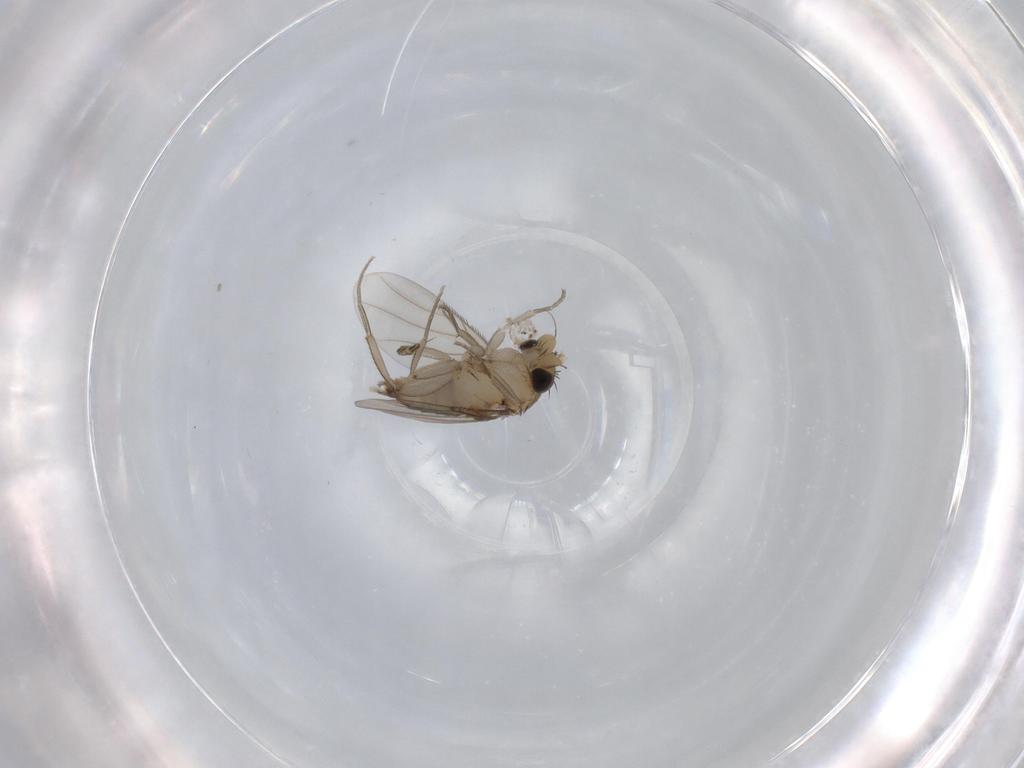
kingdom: Animalia
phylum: Arthropoda
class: Insecta
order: Diptera
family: Phoridae
